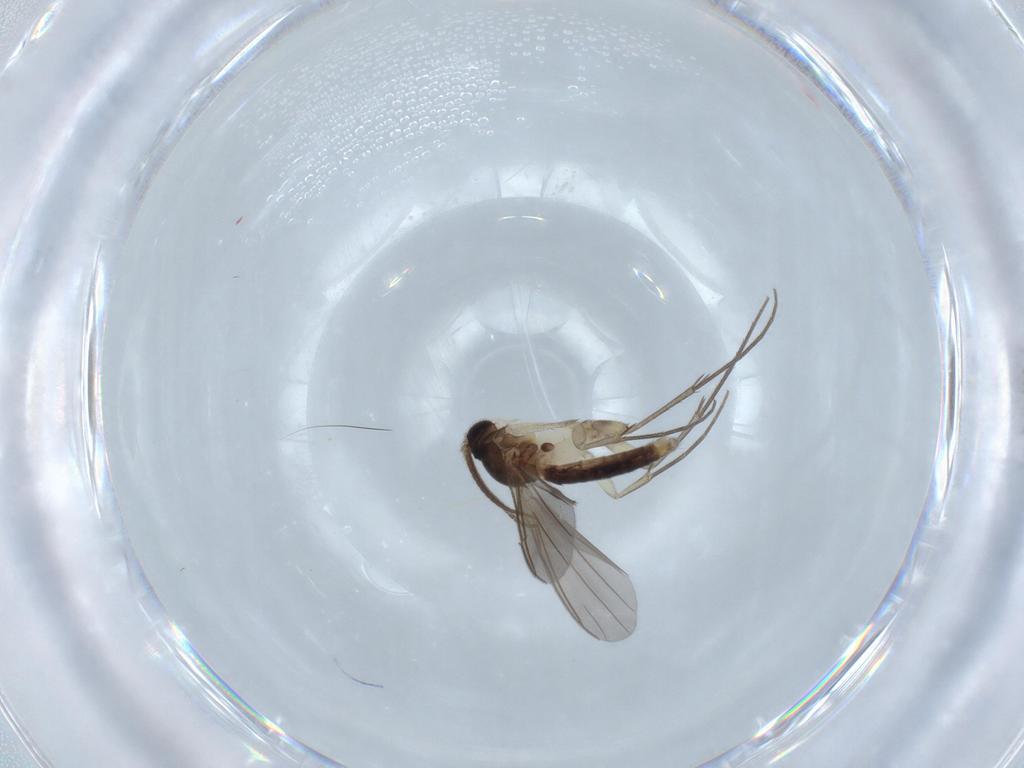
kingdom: Animalia
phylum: Arthropoda
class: Insecta
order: Diptera
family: Mycetophilidae
